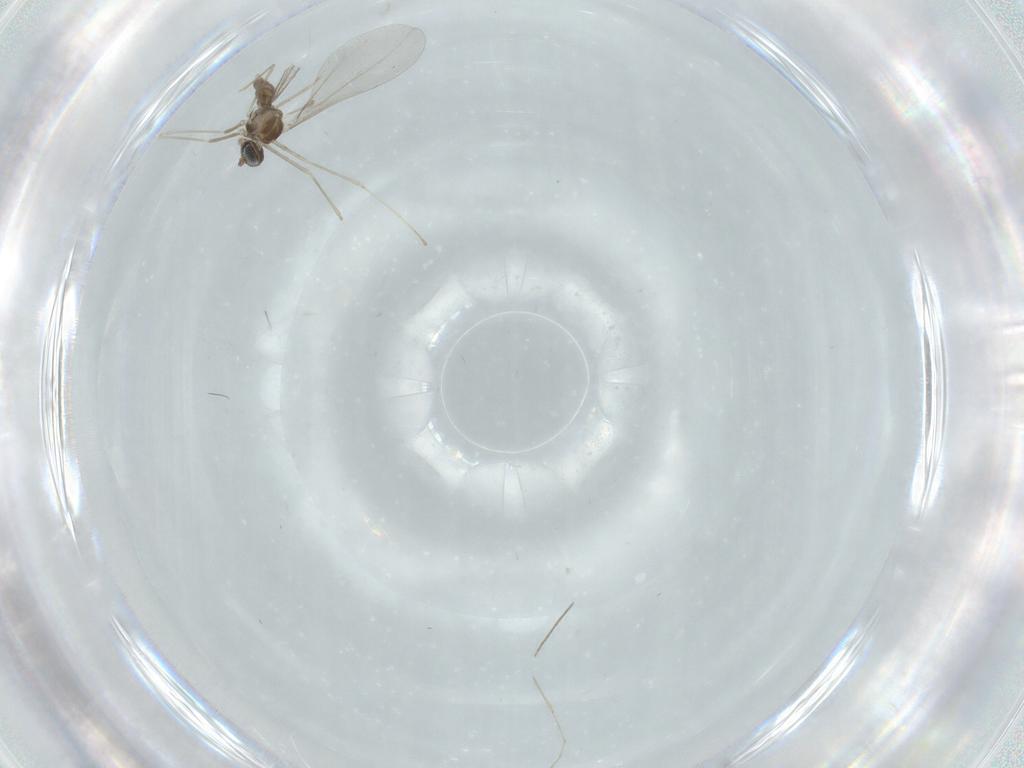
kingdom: Animalia
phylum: Arthropoda
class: Insecta
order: Diptera
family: Cecidomyiidae
